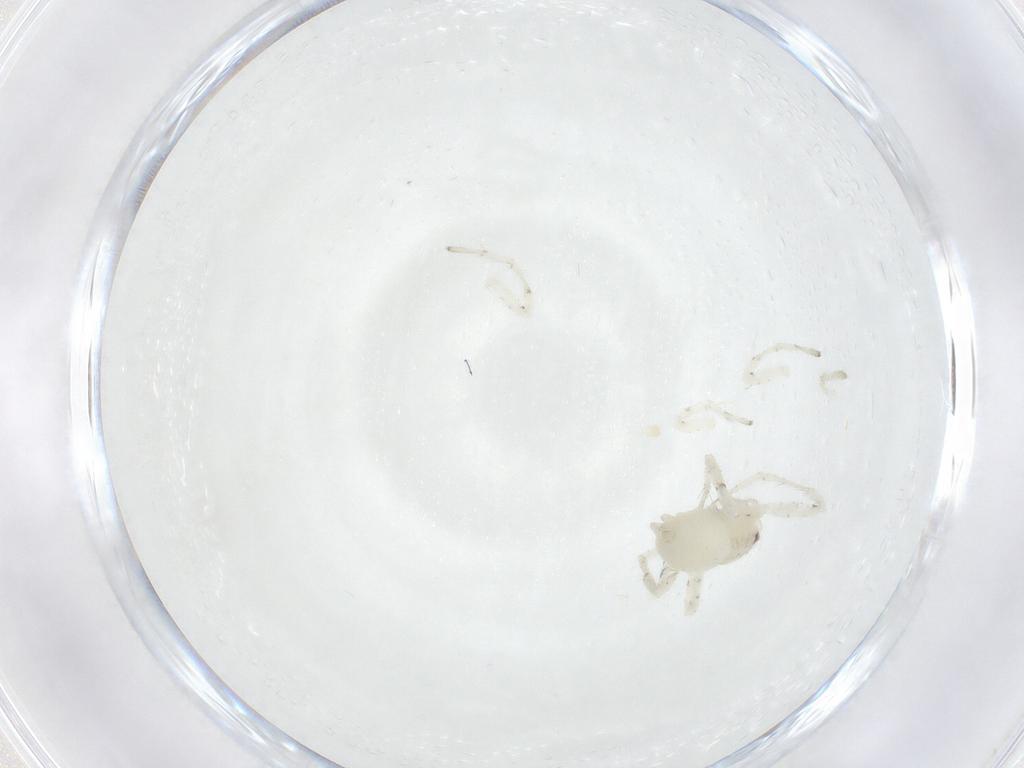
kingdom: Animalia
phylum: Arthropoda
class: Arachnida
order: Araneae
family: Anyphaenidae
